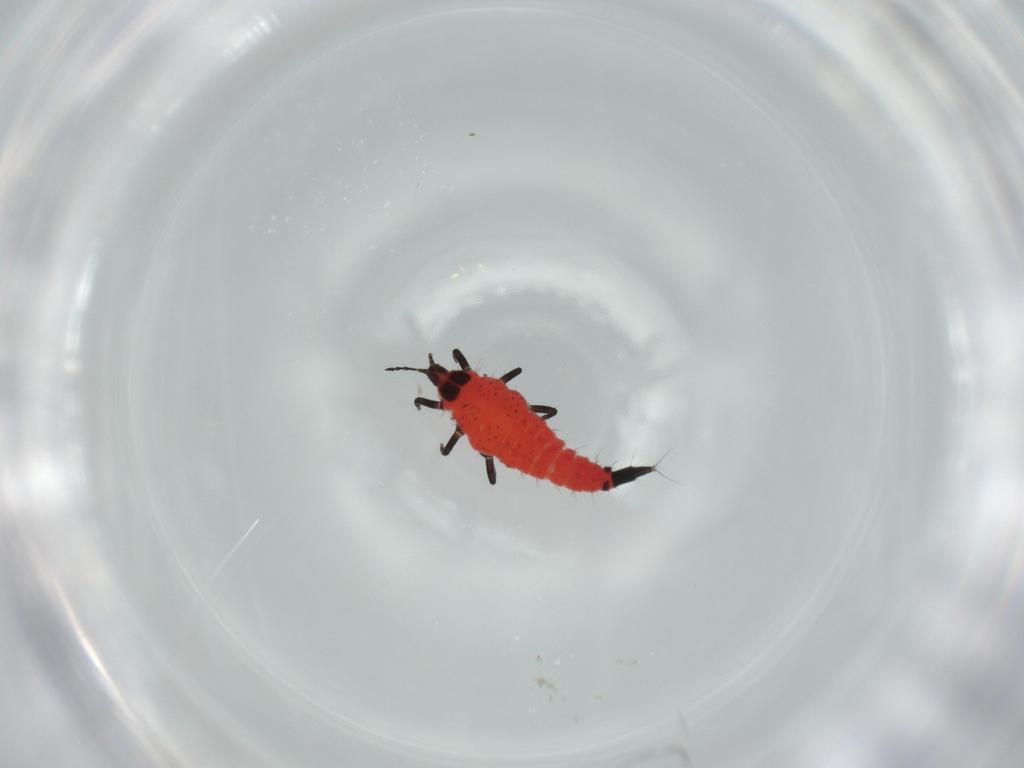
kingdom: Animalia
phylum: Arthropoda
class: Insecta
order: Thysanoptera
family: Phlaeothripidae
